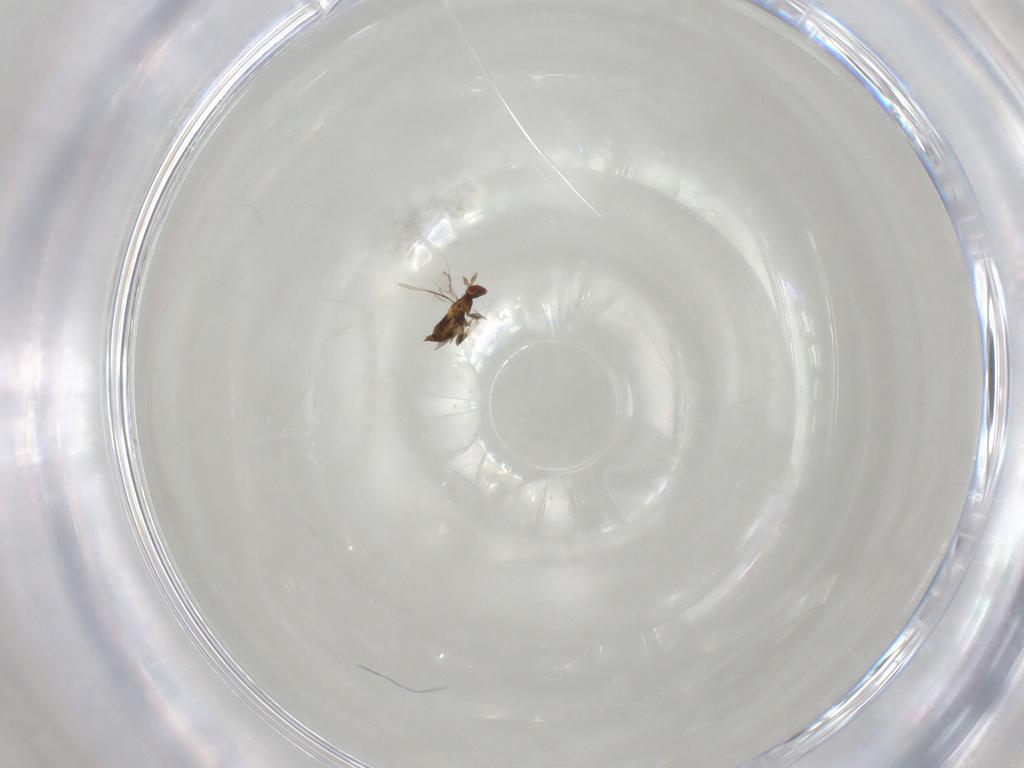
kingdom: Animalia
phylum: Arthropoda
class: Insecta
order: Hymenoptera
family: Trichogrammatidae
